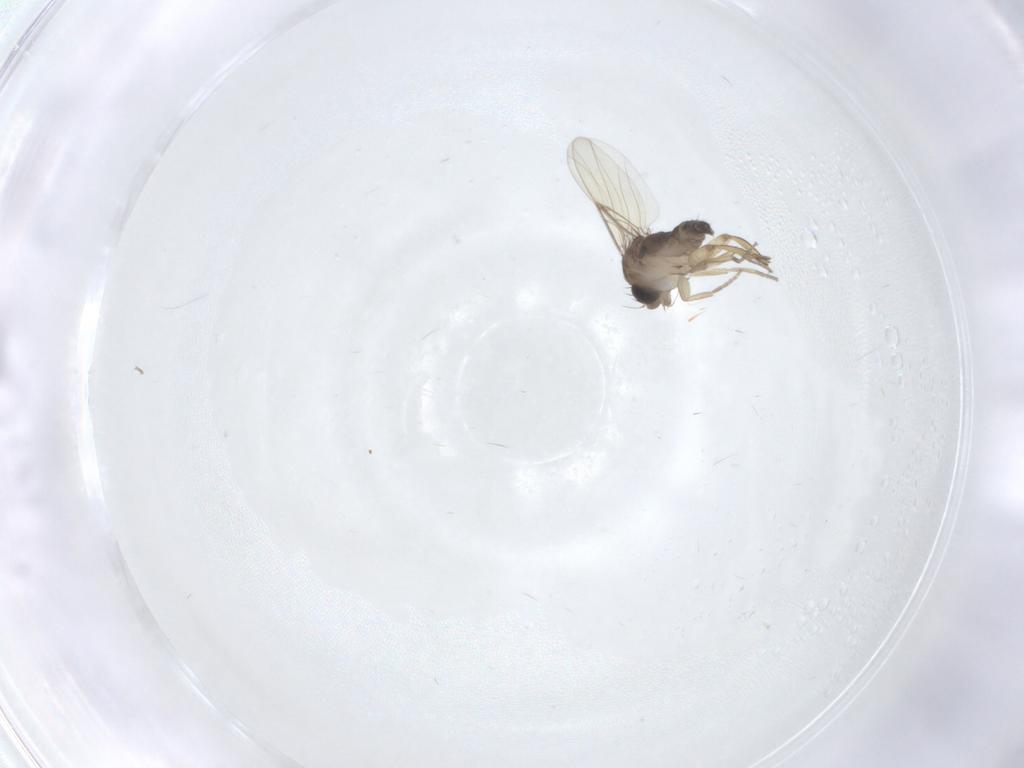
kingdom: Animalia
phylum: Arthropoda
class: Insecta
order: Diptera
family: Phoridae
